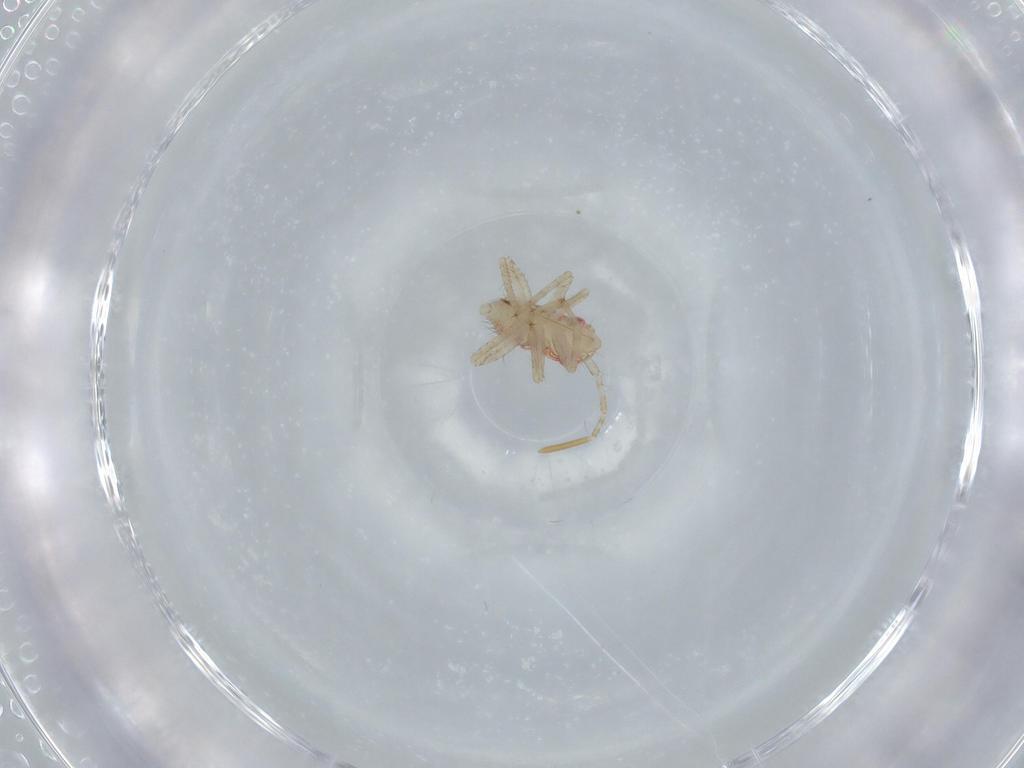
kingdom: Animalia
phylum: Arthropoda
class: Insecta
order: Hemiptera
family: Miridae
